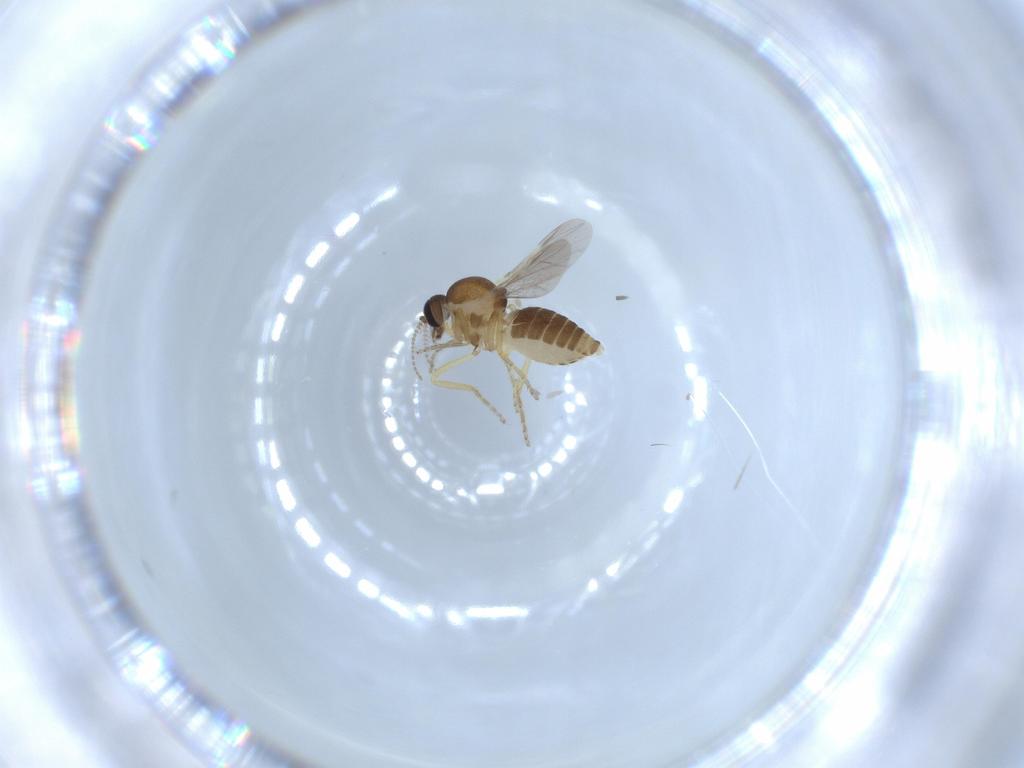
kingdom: Animalia
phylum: Arthropoda
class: Insecta
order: Diptera
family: Ceratopogonidae
